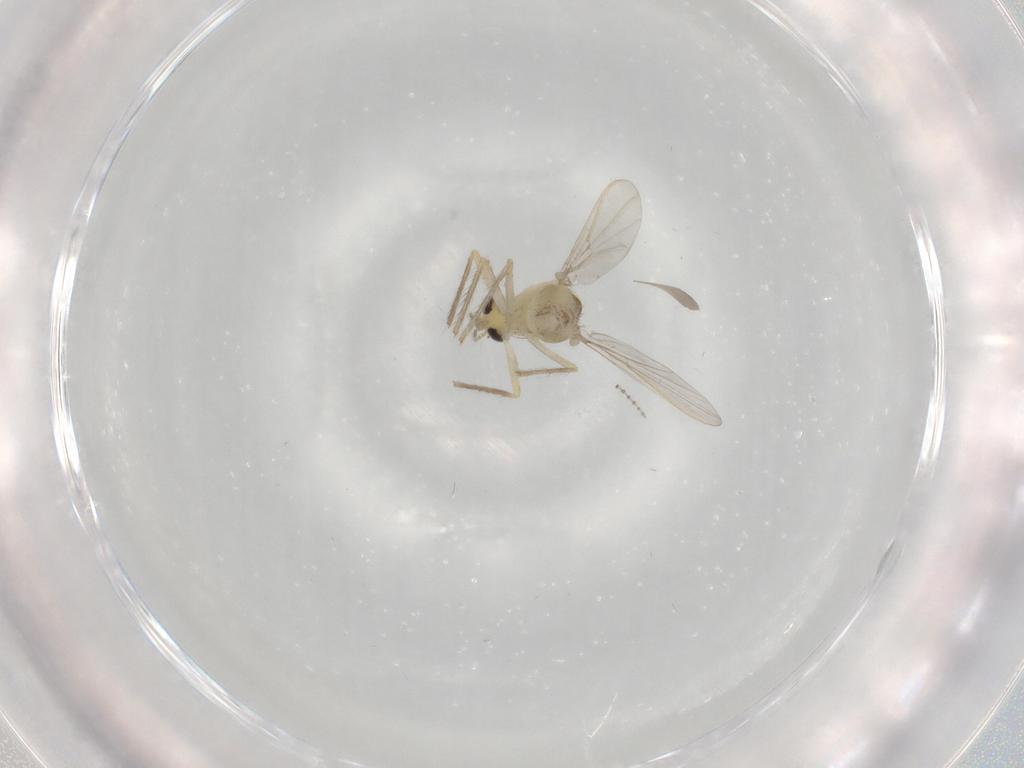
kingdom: Animalia
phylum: Arthropoda
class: Insecta
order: Diptera
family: Chironomidae
